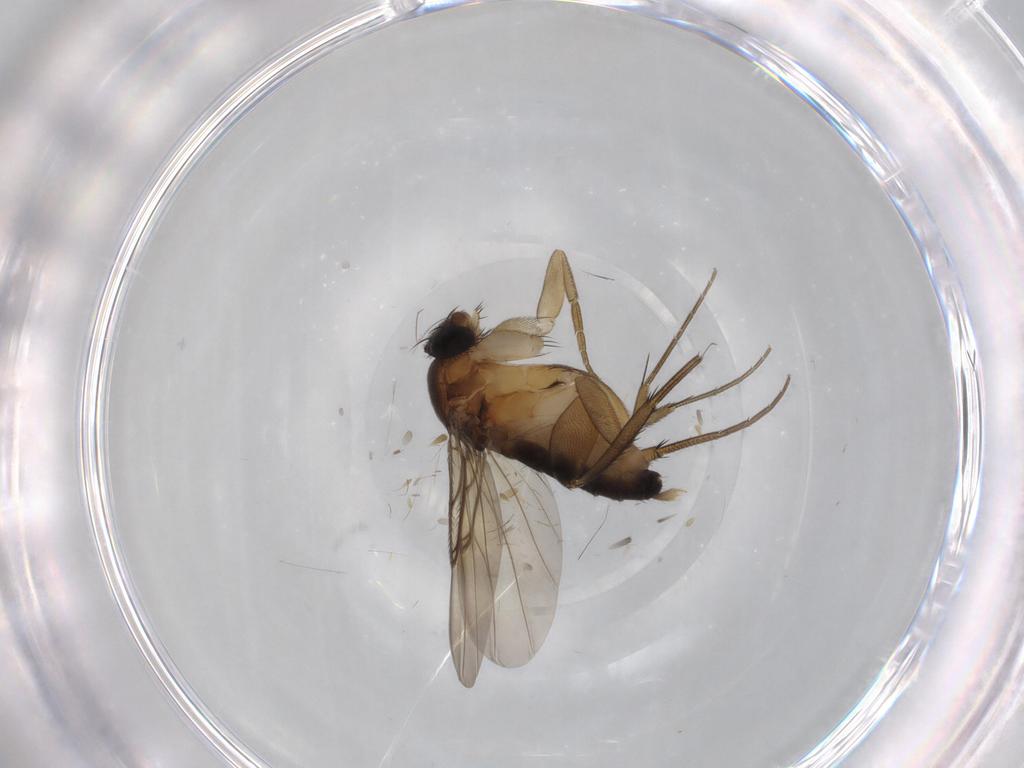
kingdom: Animalia
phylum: Arthropoda
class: Insecta
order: Diptera
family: Phoridae
